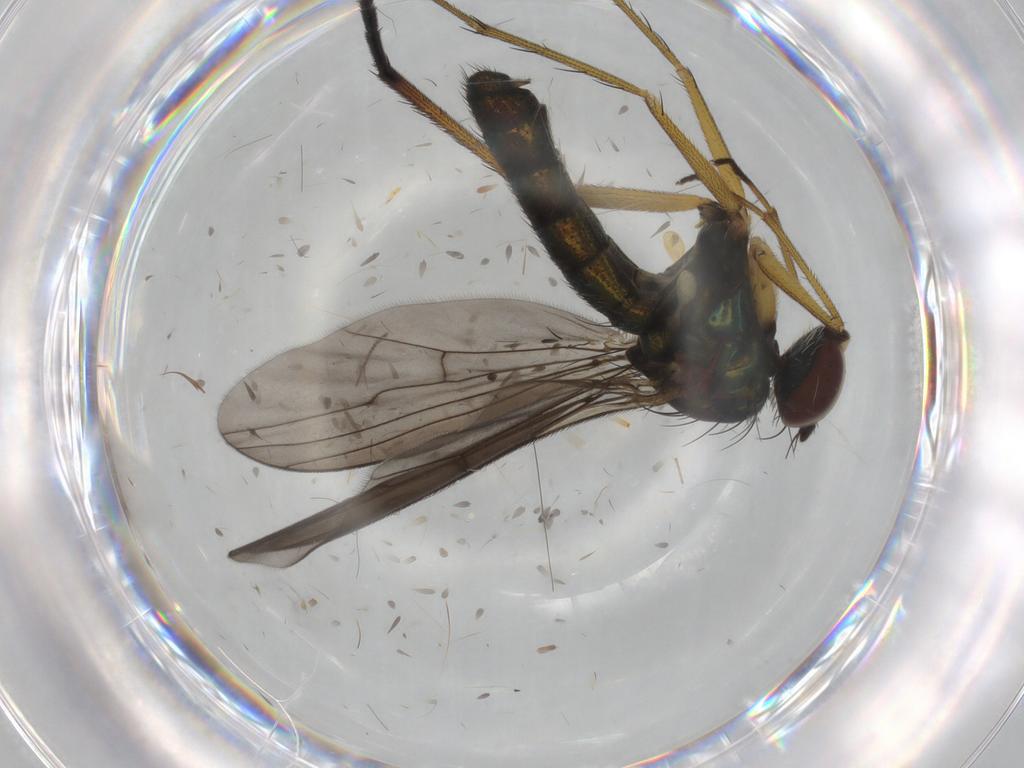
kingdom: Animalia
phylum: Arthropoda
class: Insecta
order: Diptera
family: Dolichopodidae
